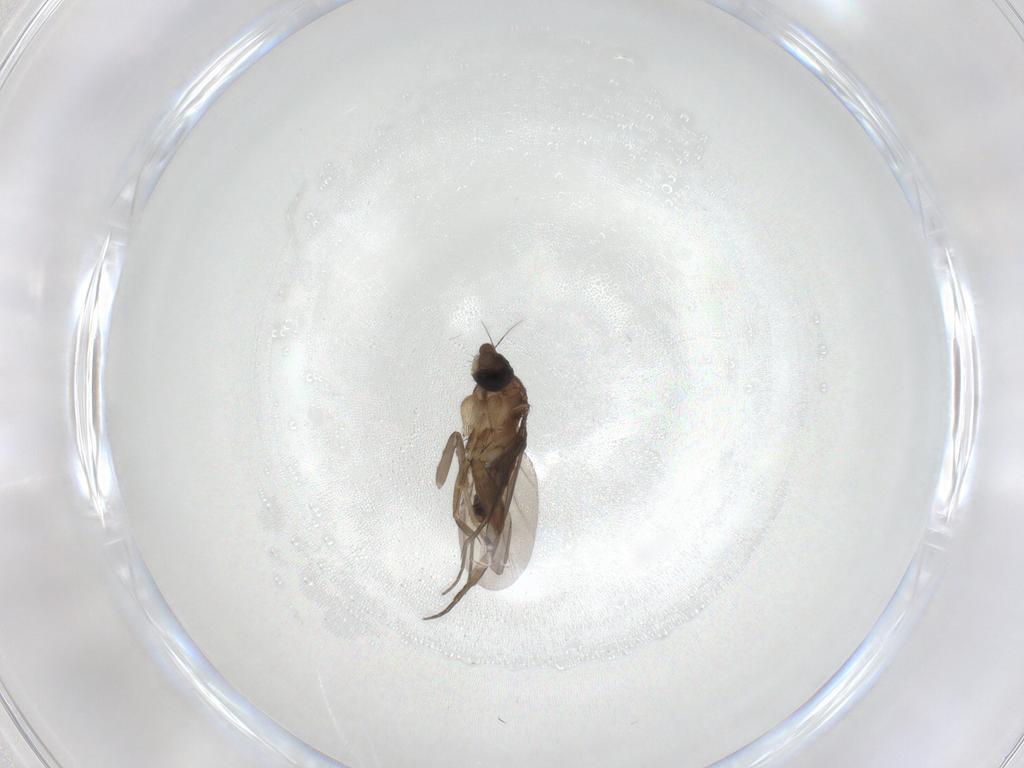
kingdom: Animalia
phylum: Arthropoda
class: Insecta
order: Diptera
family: Phoridae
